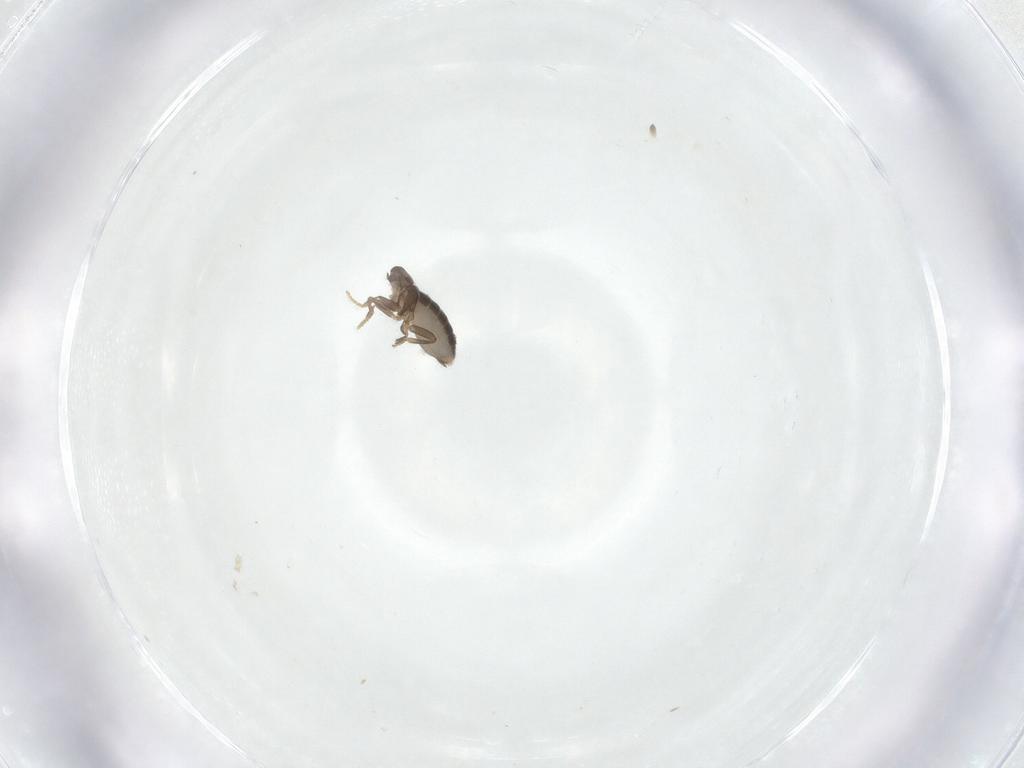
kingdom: Animalia
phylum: Arthropoda
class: Insecta
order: Diptera
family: Phoridae
